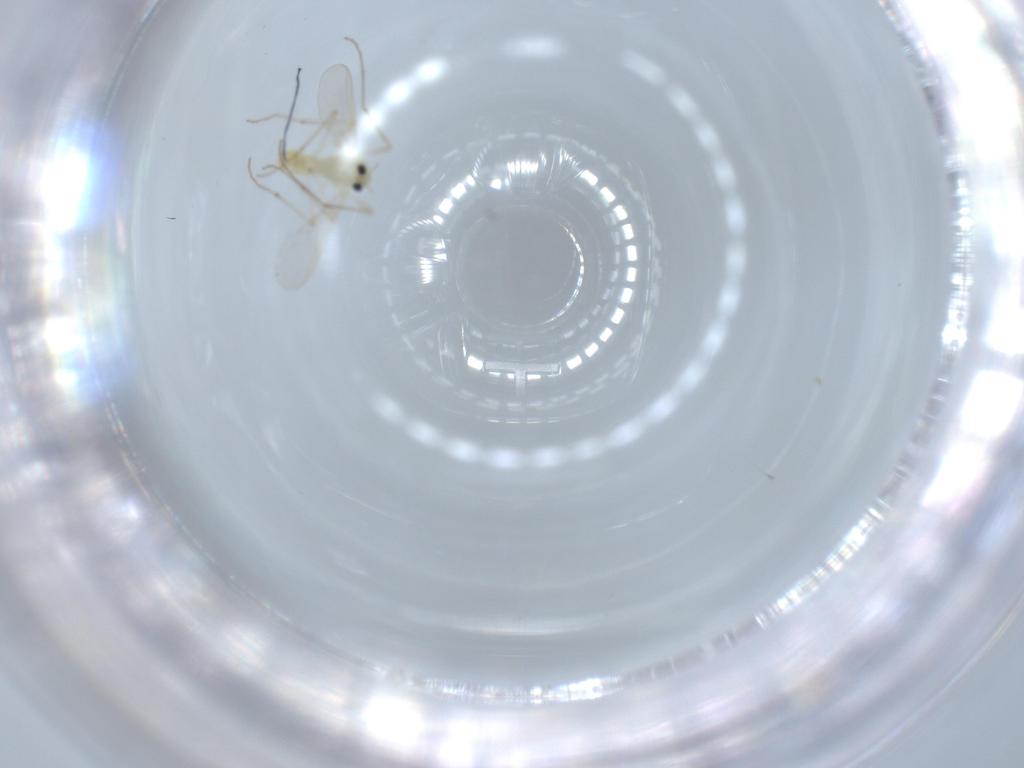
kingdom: Animalia
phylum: Arthropoda
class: Insecta
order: Diptera
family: Chironomidae
